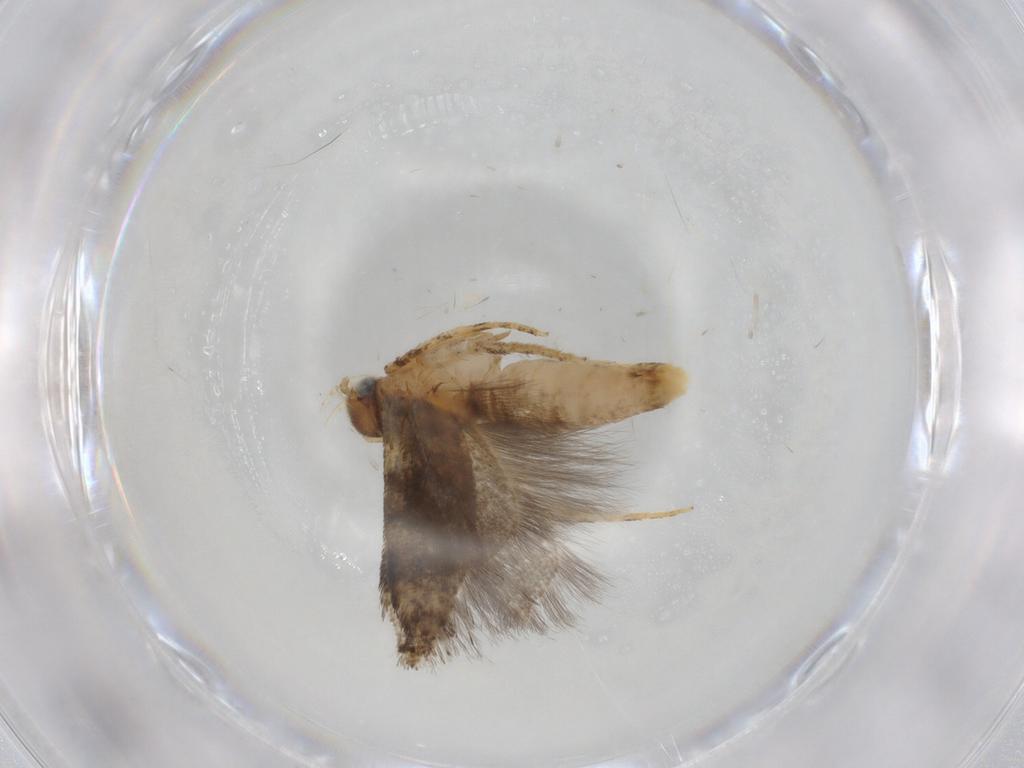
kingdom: Animalia
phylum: Arthropoda
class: Insecta
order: Lepidoptera
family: Gelechiidae
